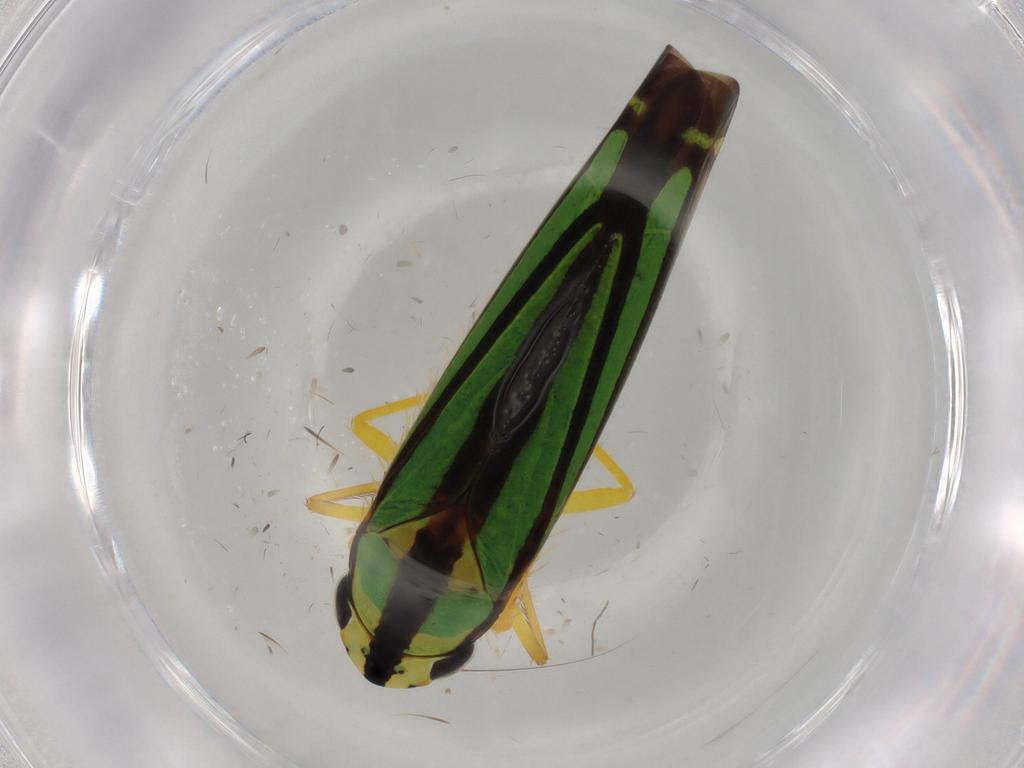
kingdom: Animalia
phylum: Arthropoda
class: Insecta
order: Hemiptera
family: Cicadellidae
